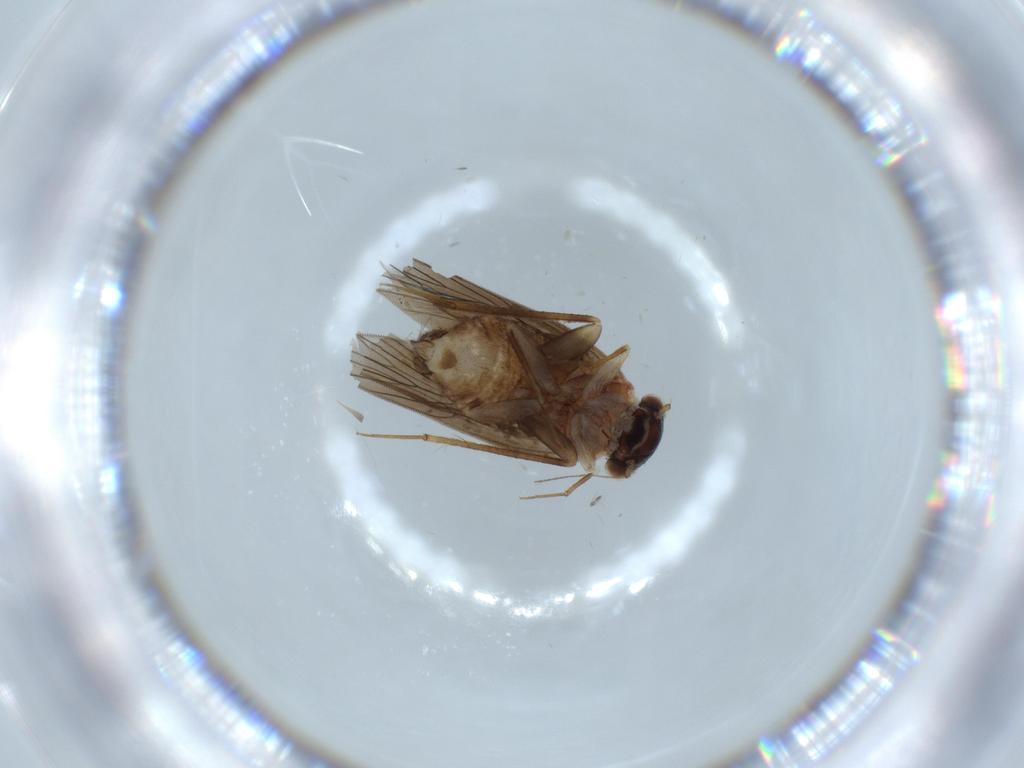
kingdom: Animalia
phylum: Arthropoda
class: Insecta
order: Psocodea
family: Lepidopsocidae
